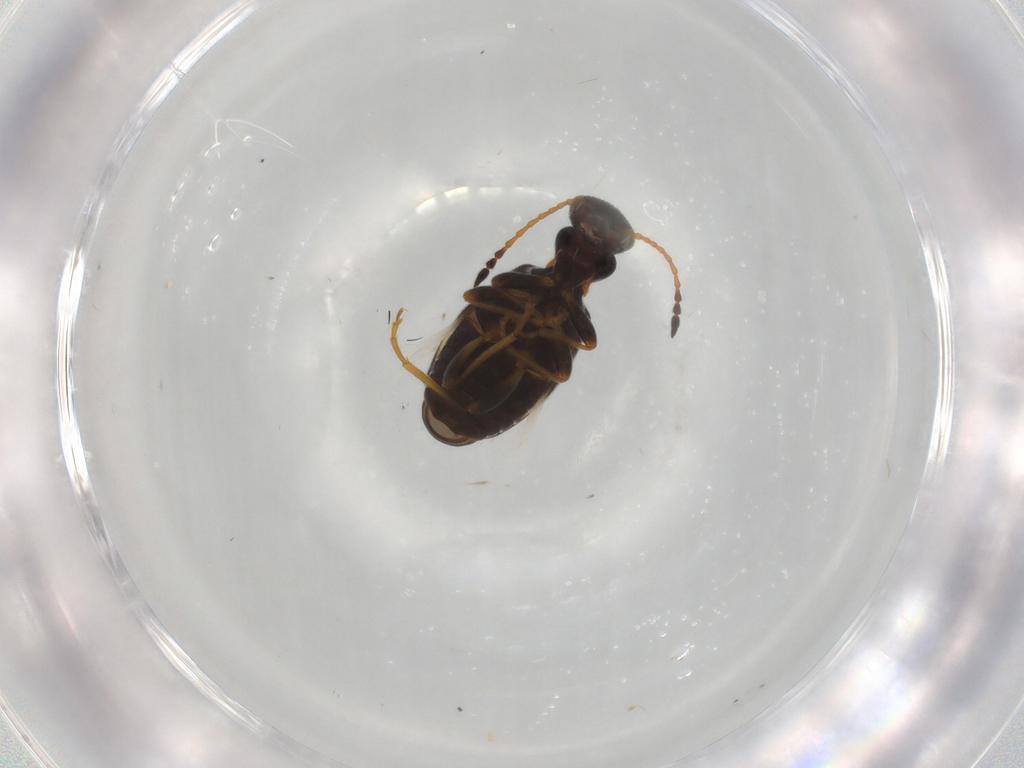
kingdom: Animalia
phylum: Arthropoda
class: Insecta
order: Coleoptera
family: Anthicidae
